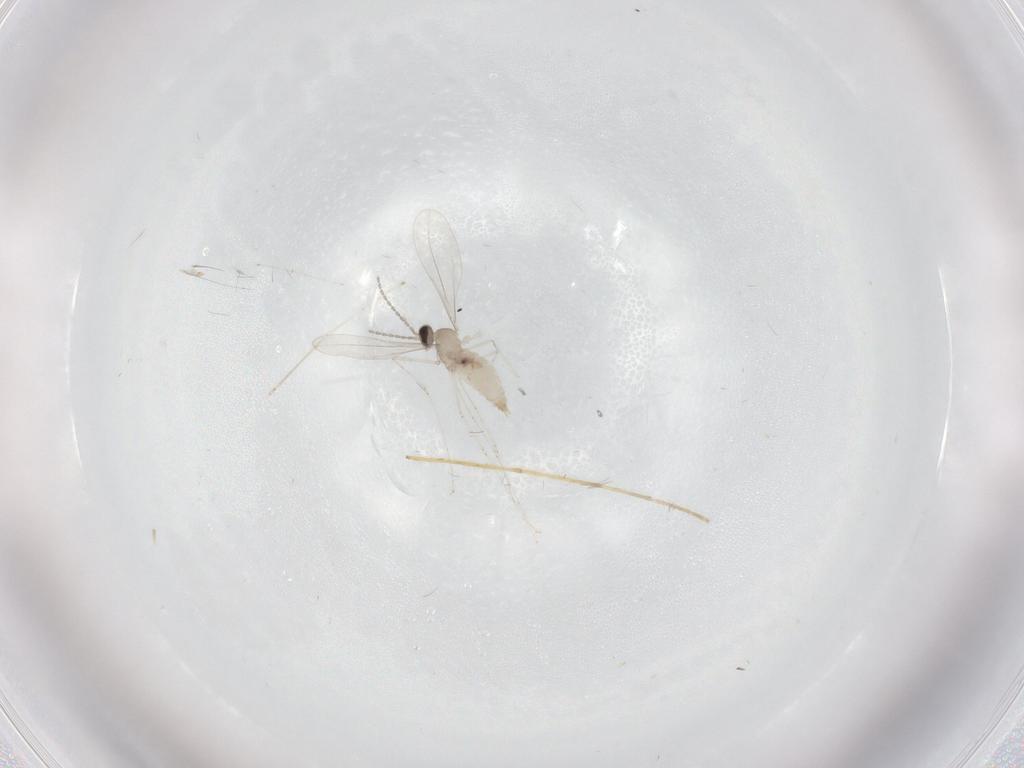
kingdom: Animalia
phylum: Arthropoda
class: Insecta
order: Diptera
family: Cecidomyiidae
